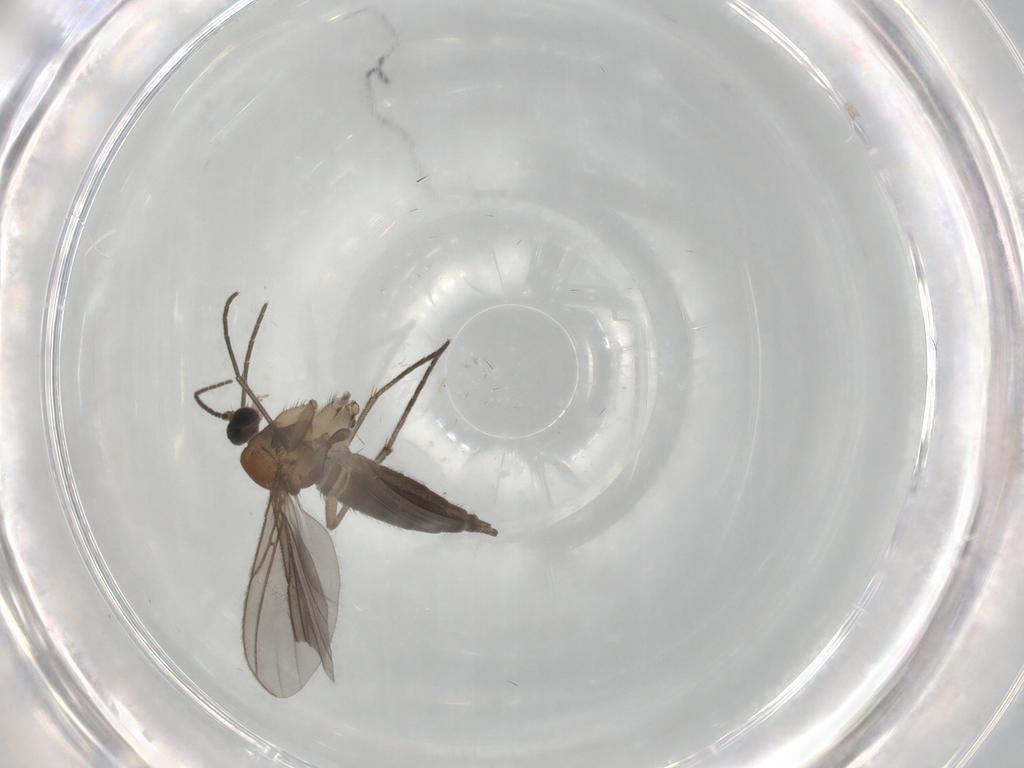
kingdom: Animalia
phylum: Arthropoda
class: Insecta
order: Diptera
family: Sciaridae
